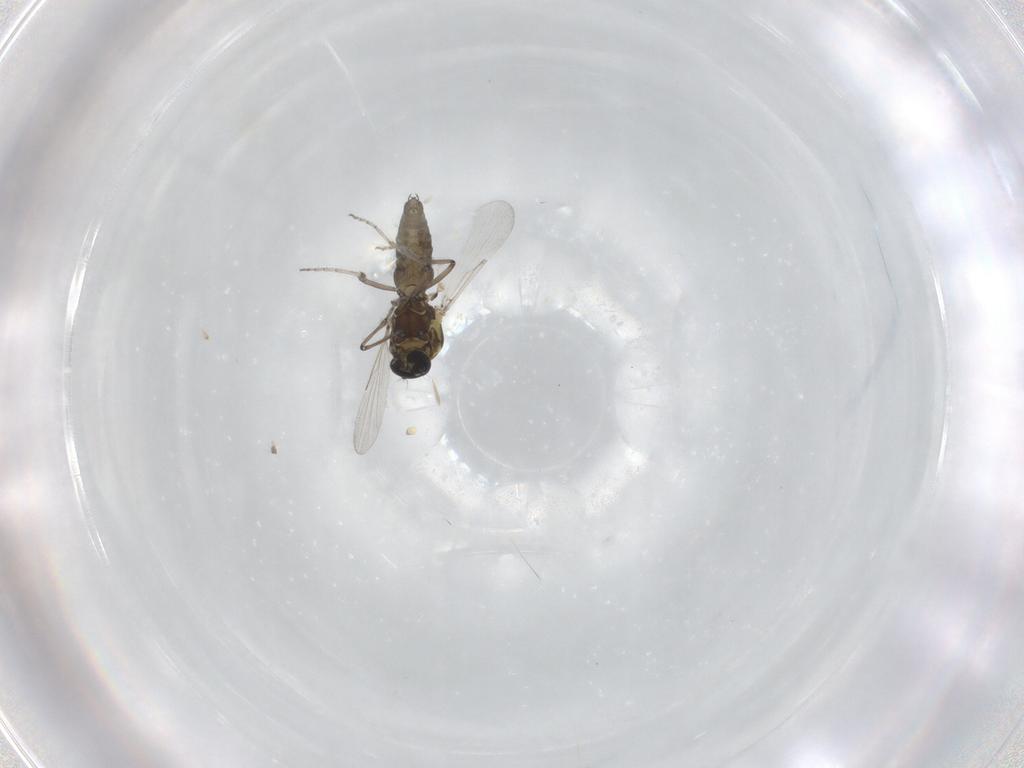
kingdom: Animalia
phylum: Arthropoda
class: Insecta
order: Diptera
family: Ceratopogonidae
